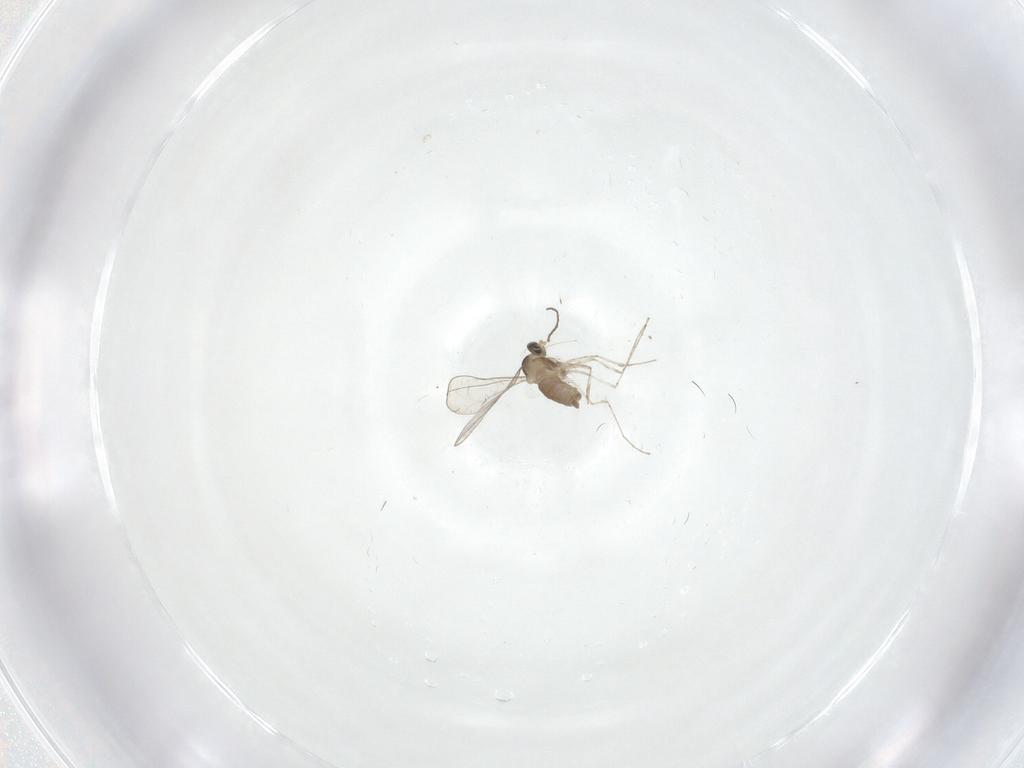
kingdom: Animalia
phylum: Arthropoda
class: Insecta
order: Diptera
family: Cecidomyiidae
